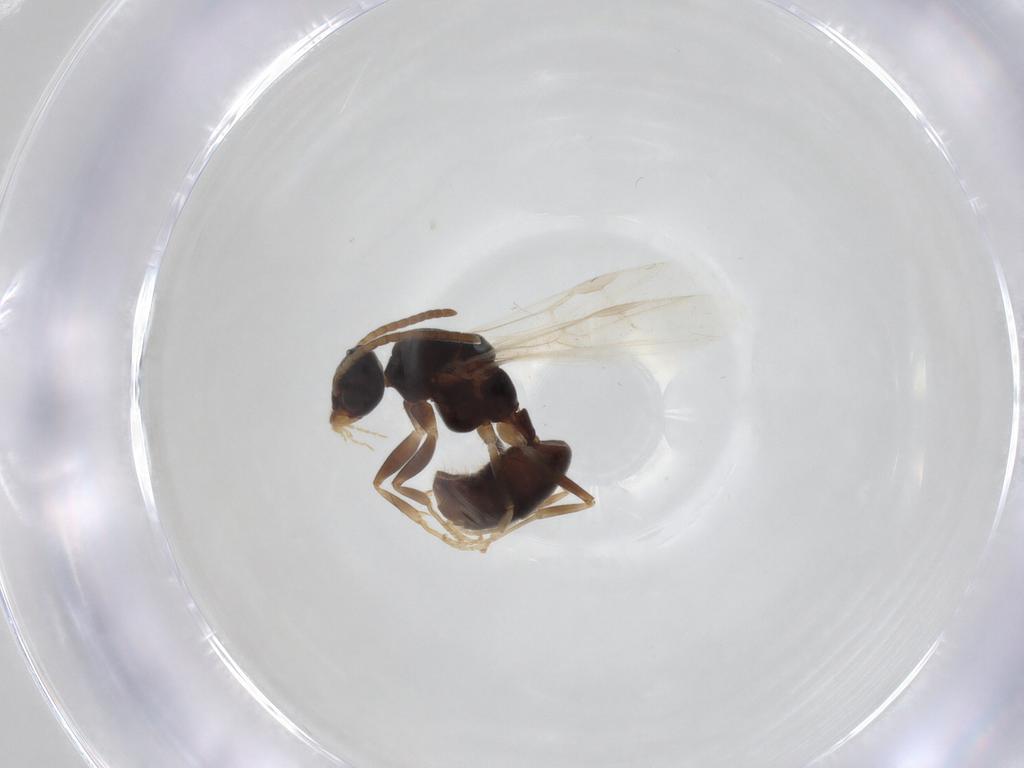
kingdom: Animalia
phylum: Arthropoda
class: Insecta
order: Hymenoptera
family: Formicidae
